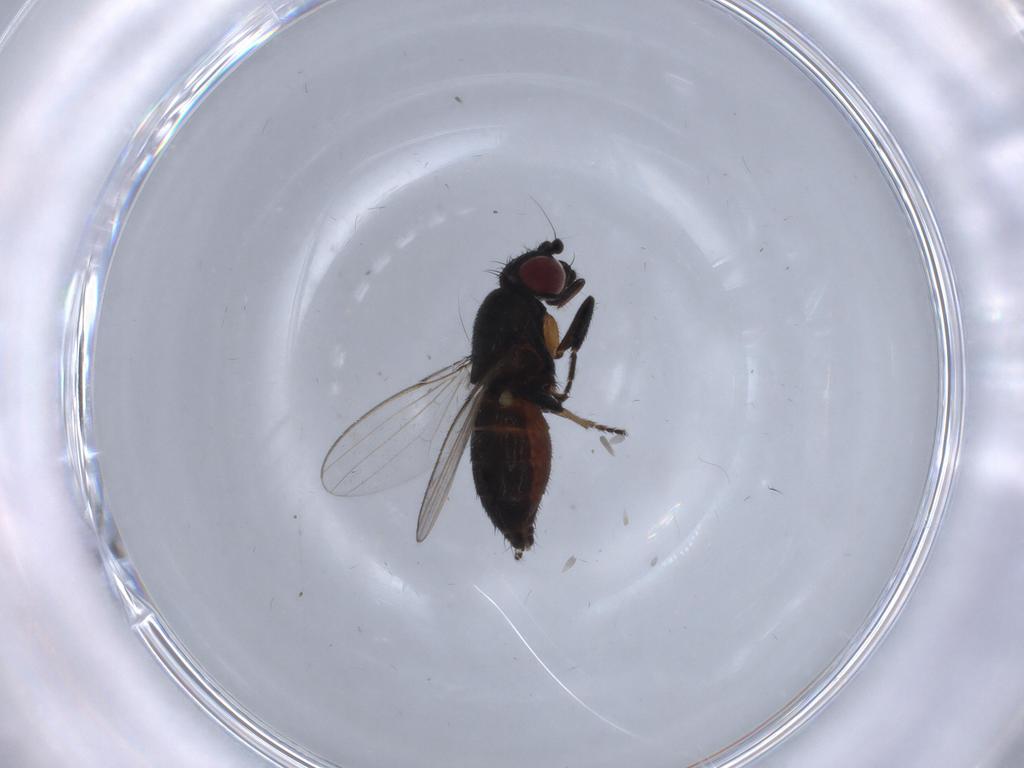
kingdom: Animalia
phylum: Arthropoda
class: Insecta
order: Diptera
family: Milichiidae
